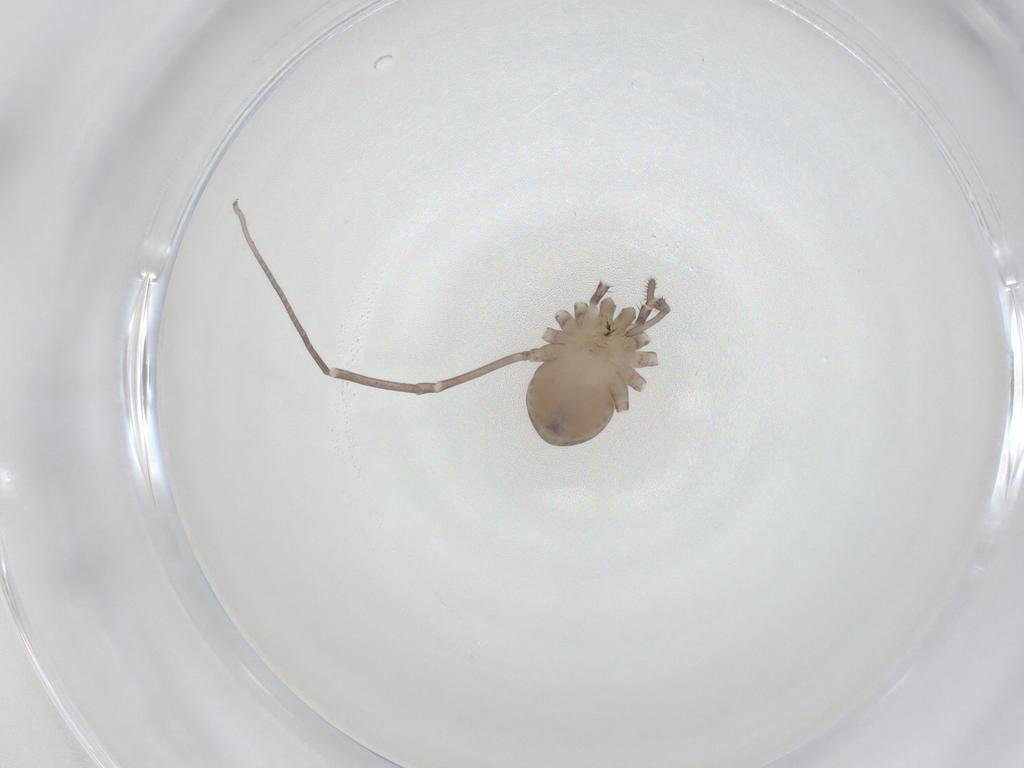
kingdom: Animalia
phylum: Arthropoda
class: Arachnida
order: Opiliones
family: Sclerosomatidae
